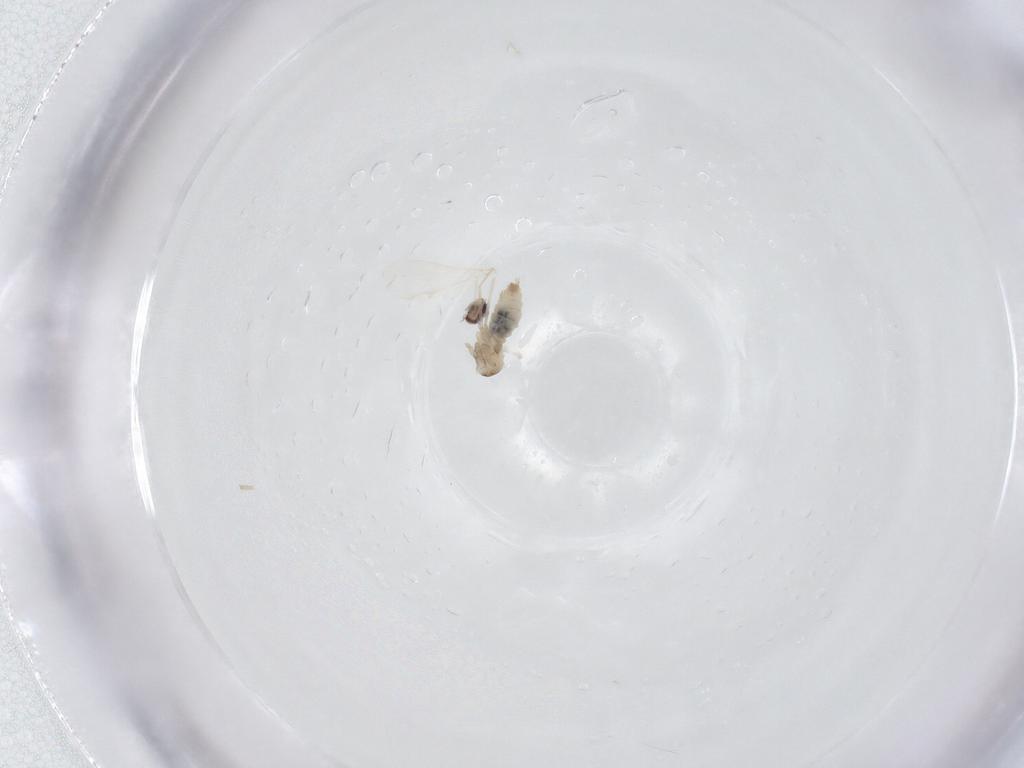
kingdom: Animalia
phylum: Arthropoda
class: Insecta
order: Diptera
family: Cecidomyiidae
